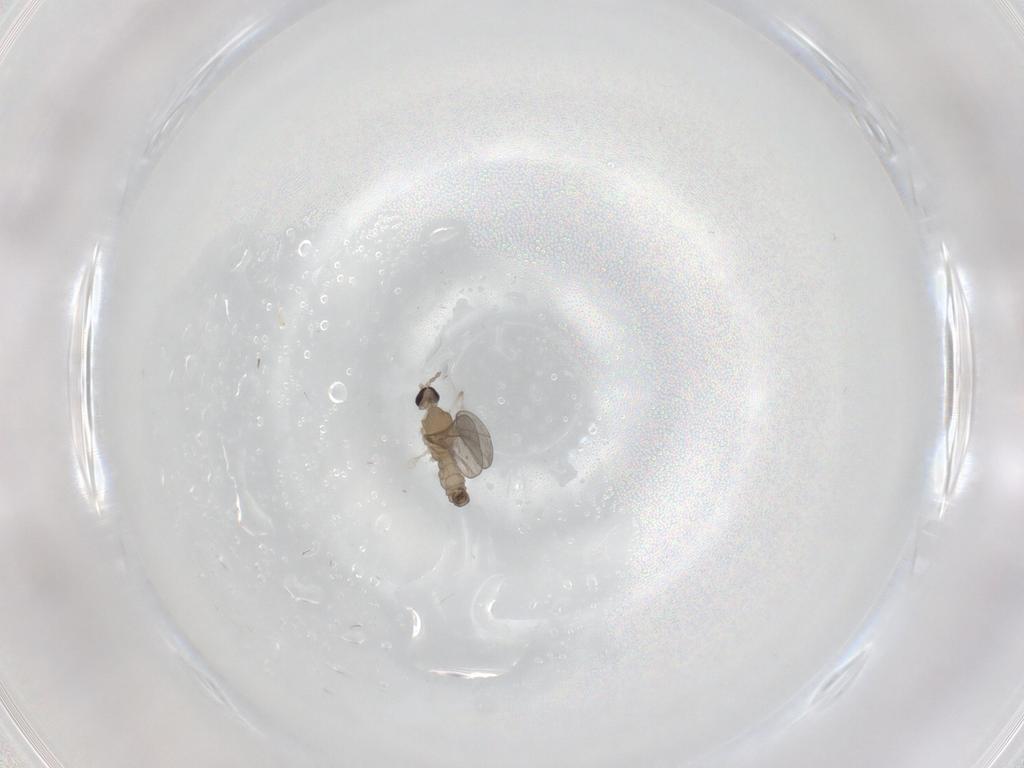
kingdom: Animalia
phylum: Arthropoda
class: Insecta
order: Diptera
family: Cecidomyiidae
